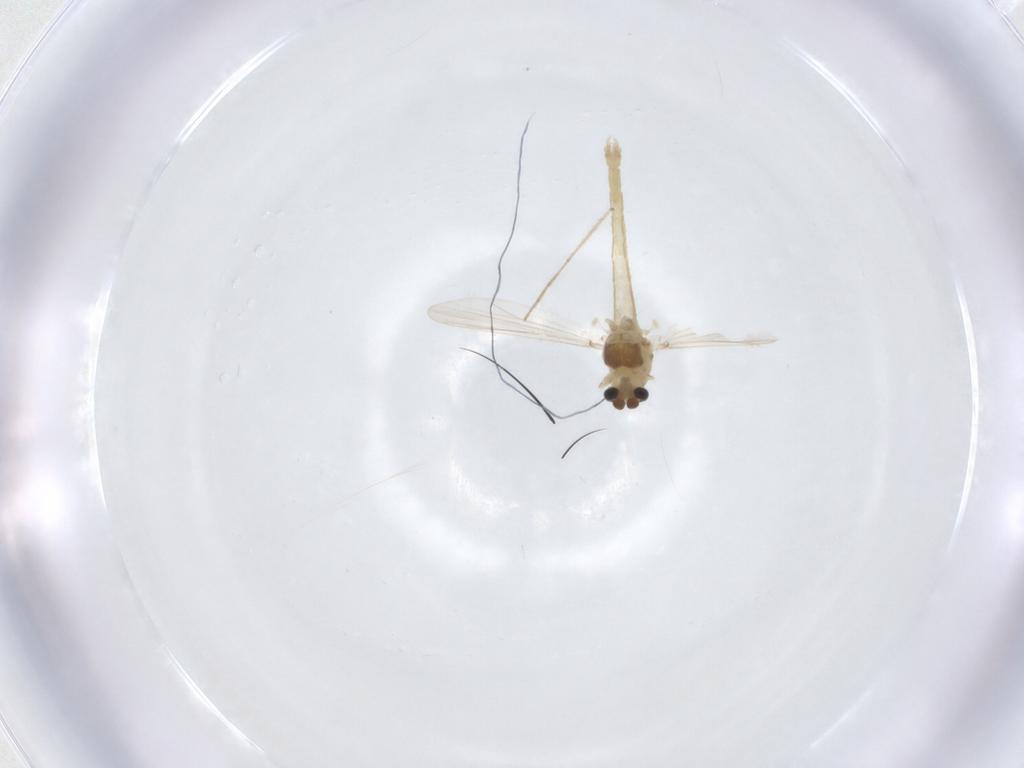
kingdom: Animalia
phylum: Arthropoda
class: Insecta
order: Diptera
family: Chironomidae
